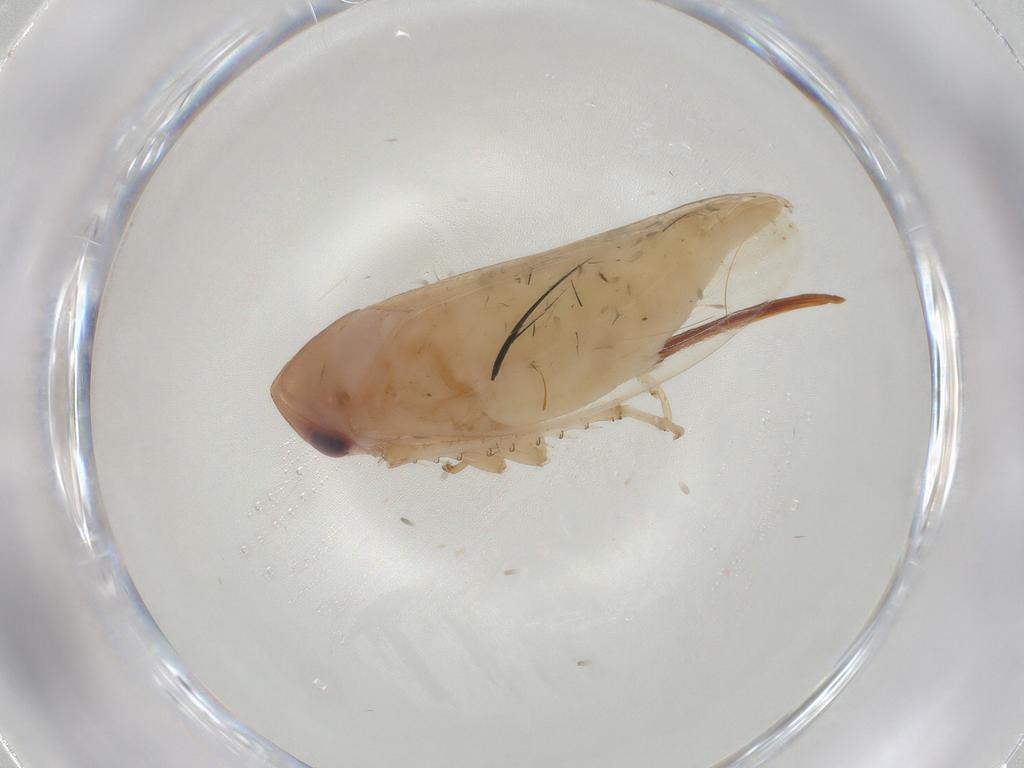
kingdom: Animalia
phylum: Arthropoda
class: Insecta
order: Hemiptera
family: Cicadellidae
